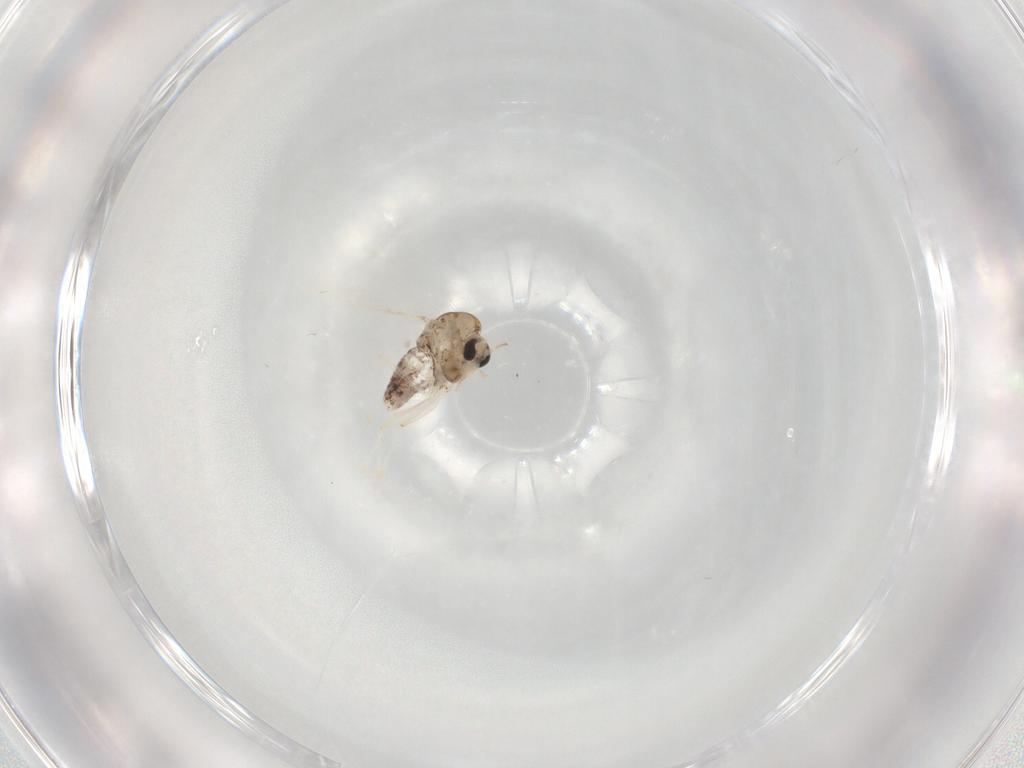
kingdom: Animalia
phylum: Arthropoda
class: Insecta
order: Diptera
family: Chironomidae
